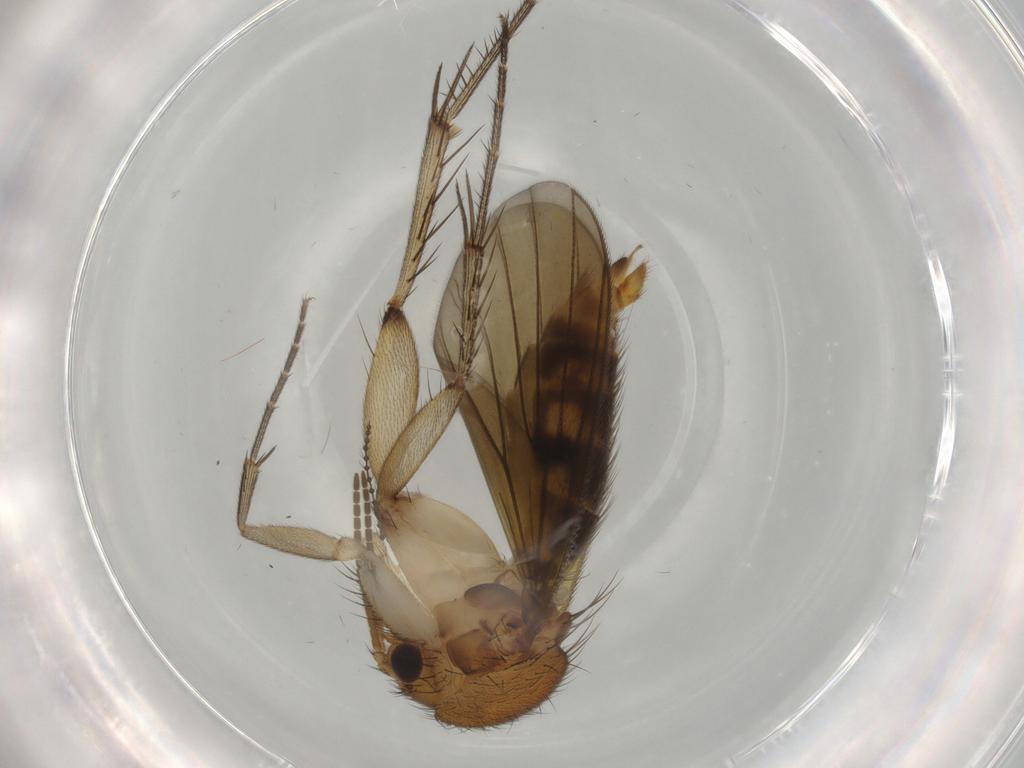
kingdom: Animalia
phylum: Arthropoda
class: Insecta
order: Diptera
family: Mycetophilidae
